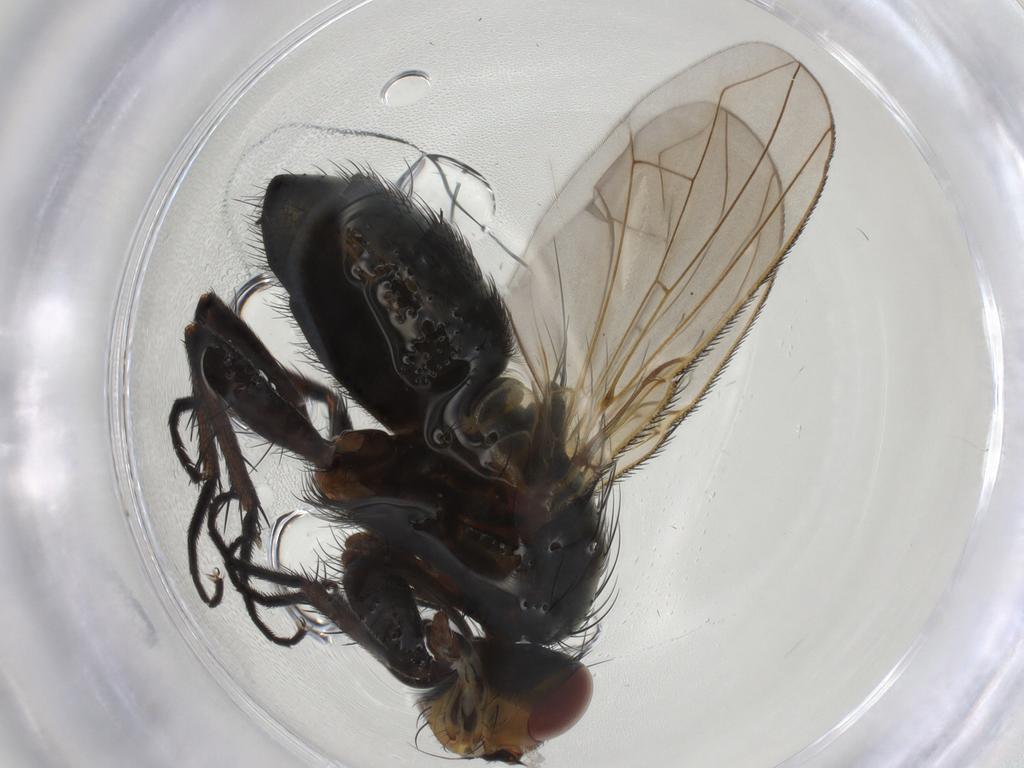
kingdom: Animalia
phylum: Arthropoda
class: Insecta
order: Diptera
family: Calliphoridae
